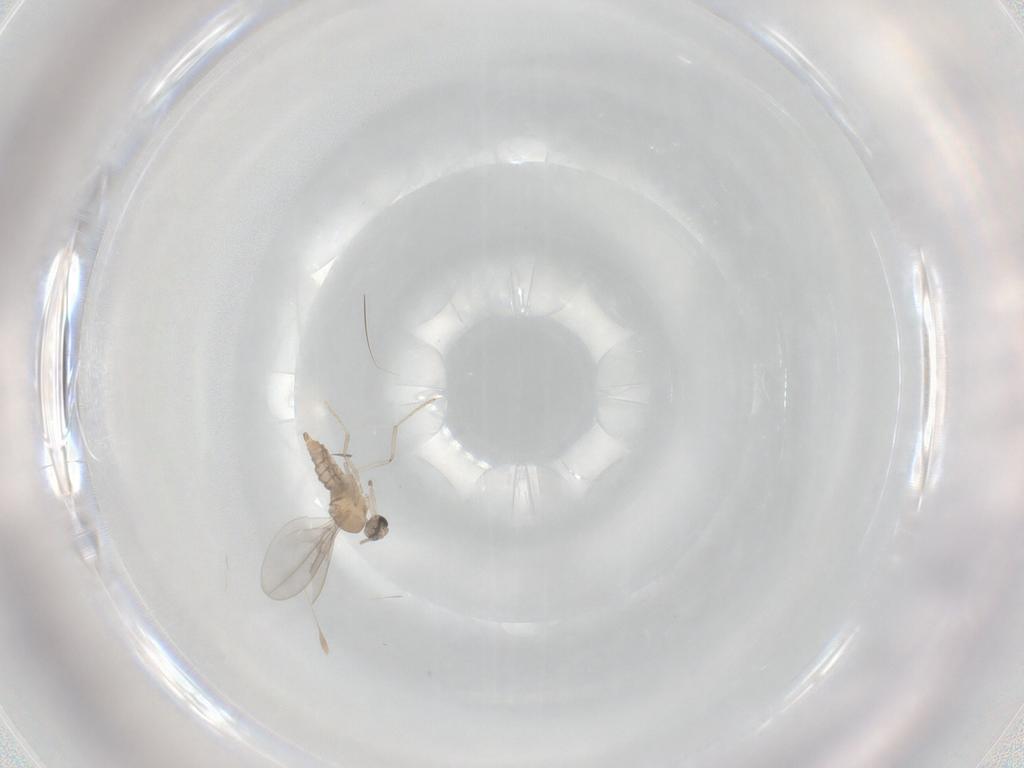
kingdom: Animalia
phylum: Arthropoda
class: Insecta
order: Diptera
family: Cecidomyiidae
